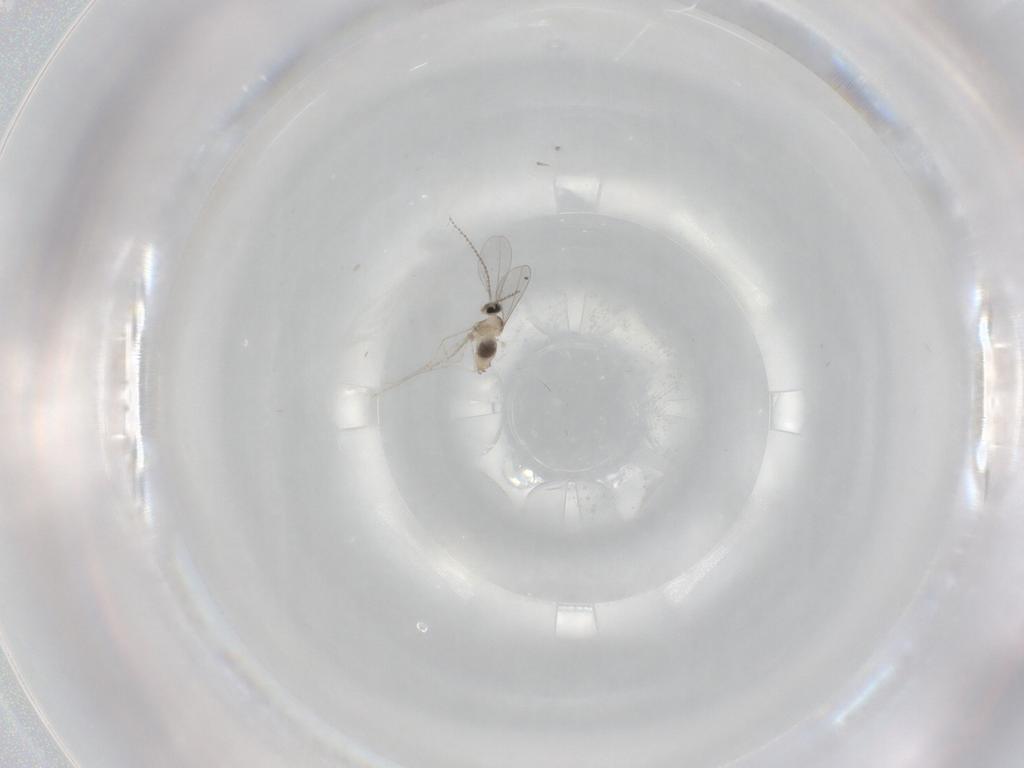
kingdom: Animalia
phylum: Arthropoda
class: Insecta
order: Diptera
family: Cecidomyiidae
